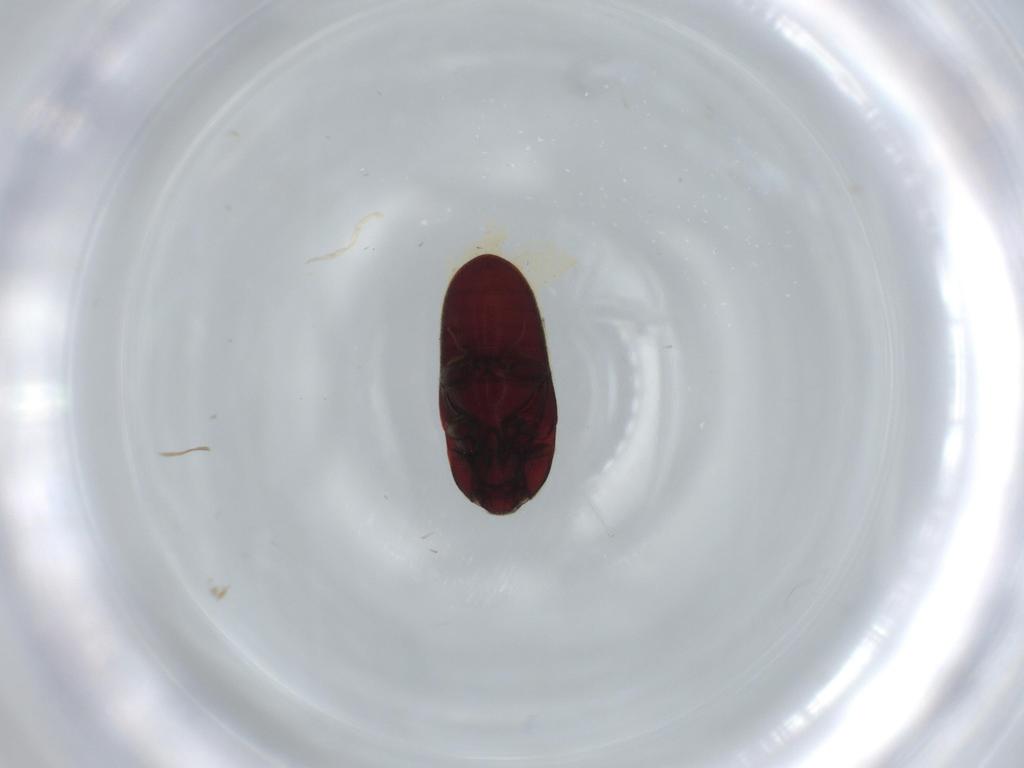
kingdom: Animalia
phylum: Arthropoda
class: Insecta
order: Coleoptera
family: Throscidae
